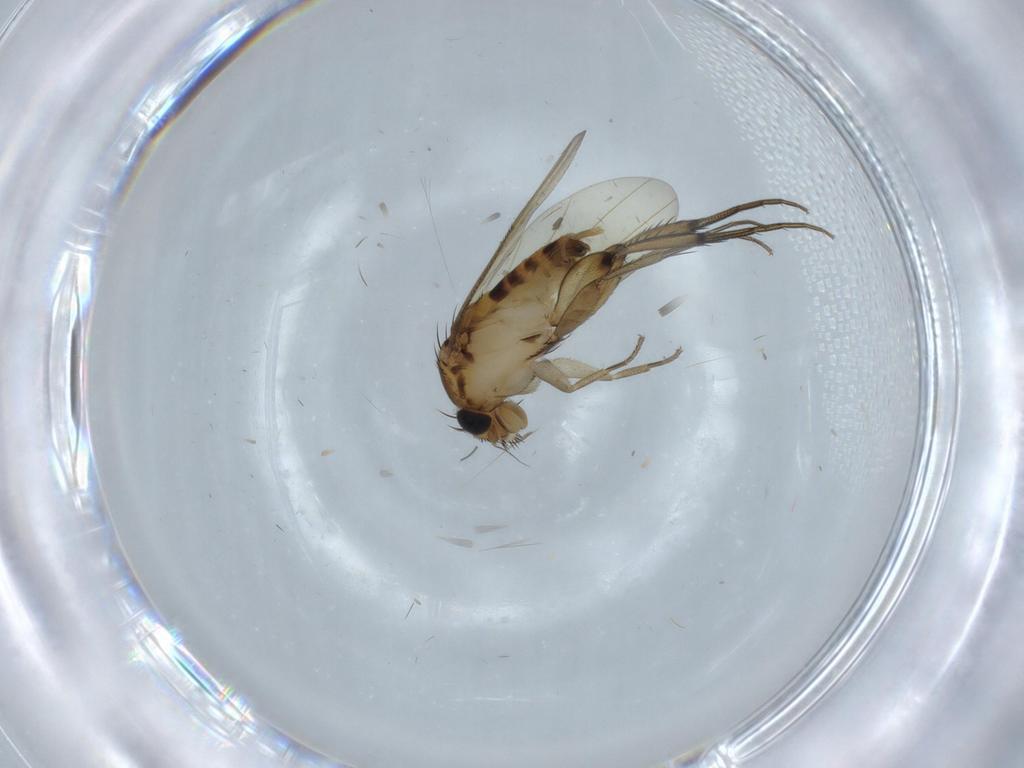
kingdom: Animalia
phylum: Arthropoda
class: Insecta
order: Diptera
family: Phoridae
